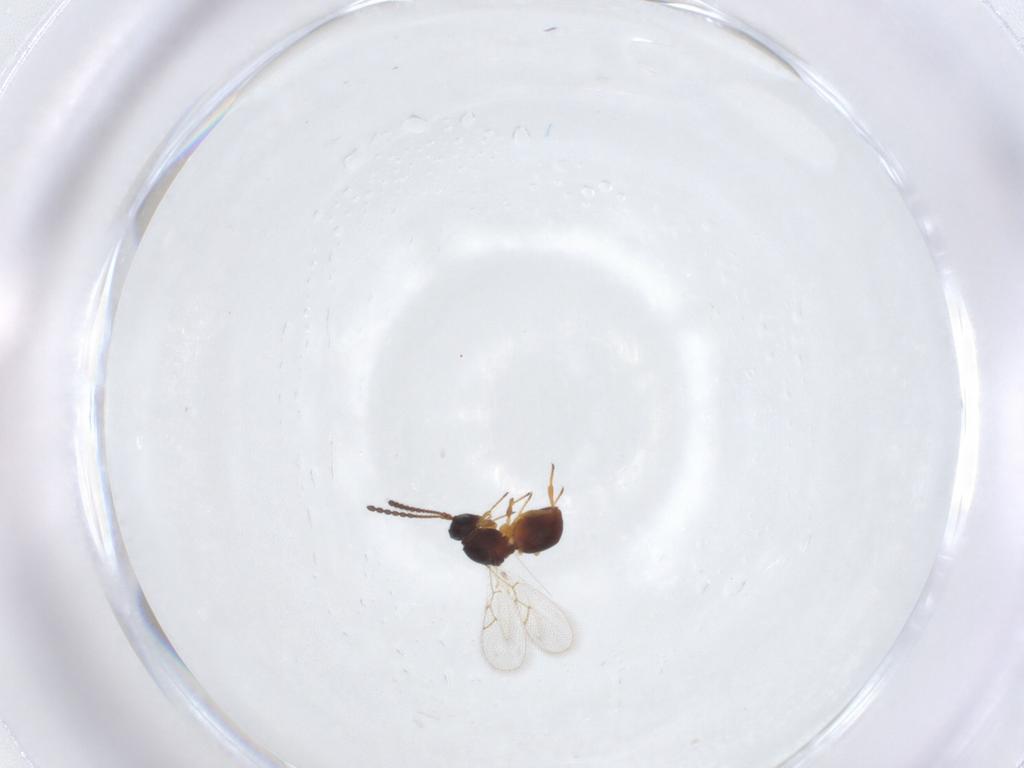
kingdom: Animalia
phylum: Arthropoda
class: Insecta
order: Hymenoptera
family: Figitidae
